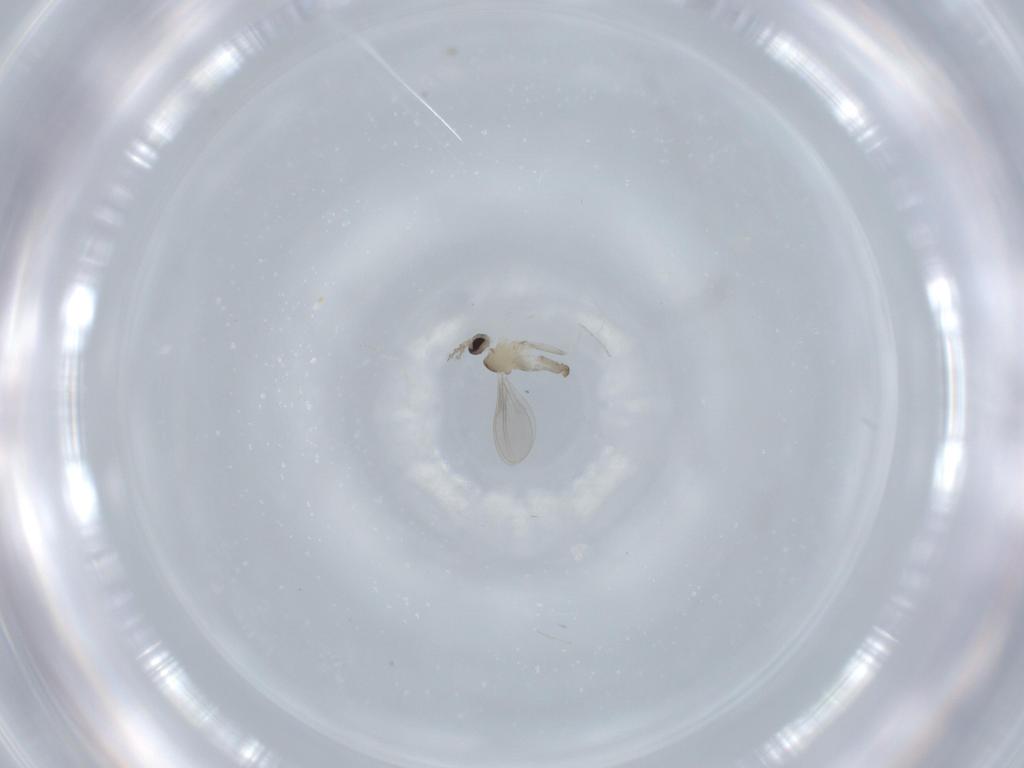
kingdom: Animalia
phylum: Arthropoda
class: Insecta
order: Diptera
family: Cecidomyiidae
